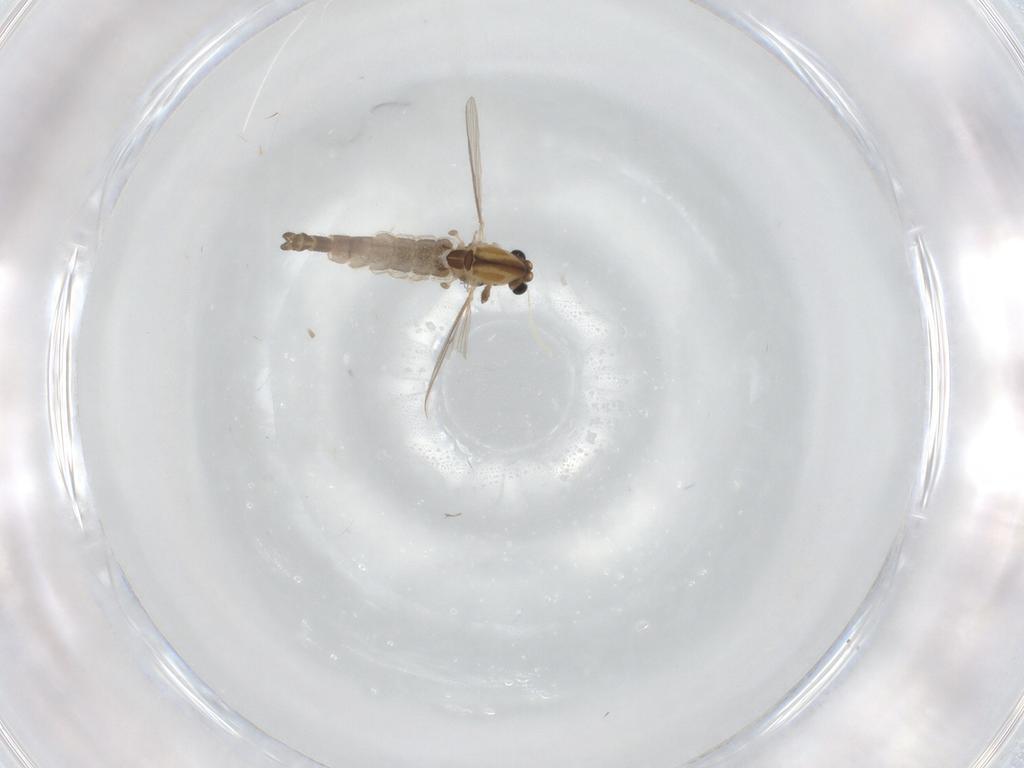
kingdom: Animalia
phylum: Arthropoda
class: Insecta
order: Diptera
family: Chironomidae
